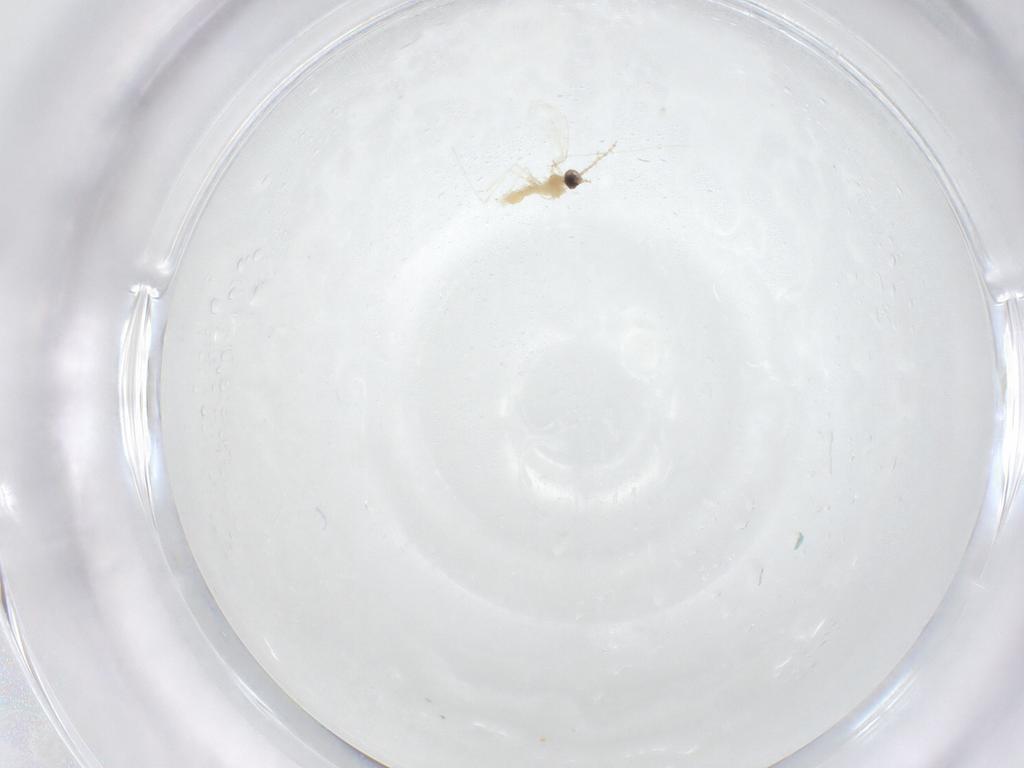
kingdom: Animalia
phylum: Arthropoda
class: Insecta
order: Diptera
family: Cecidomyiidae
